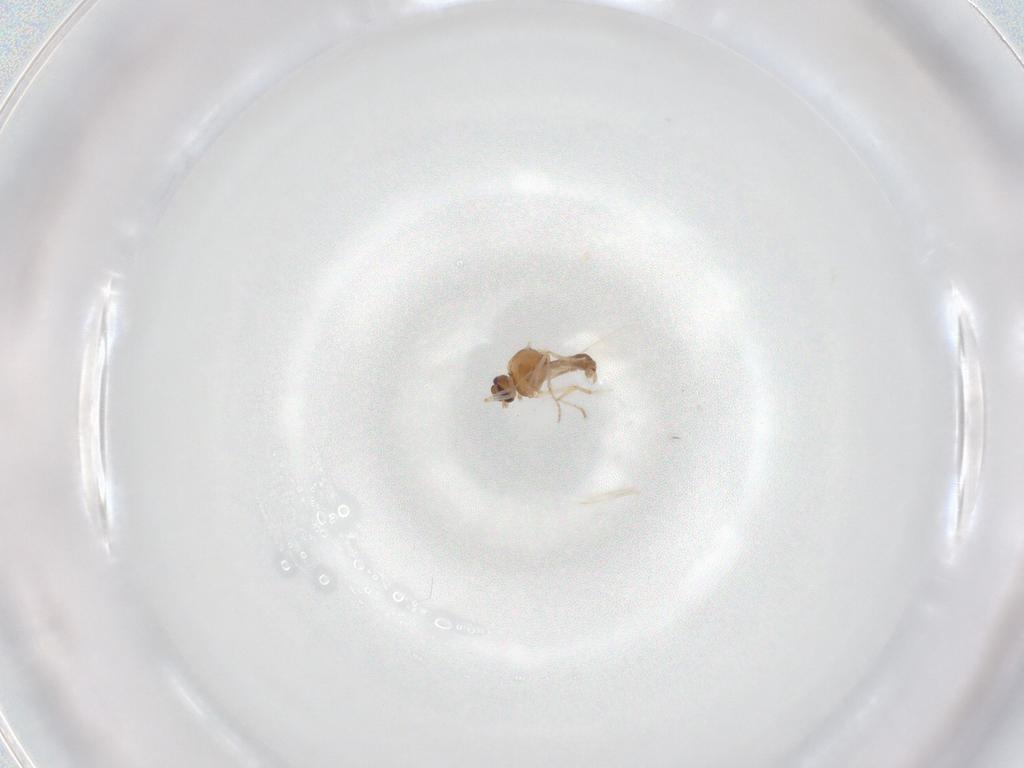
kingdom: Animalia
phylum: Arthropoda
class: Insecta
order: Diptera
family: Ceratopogonidae
